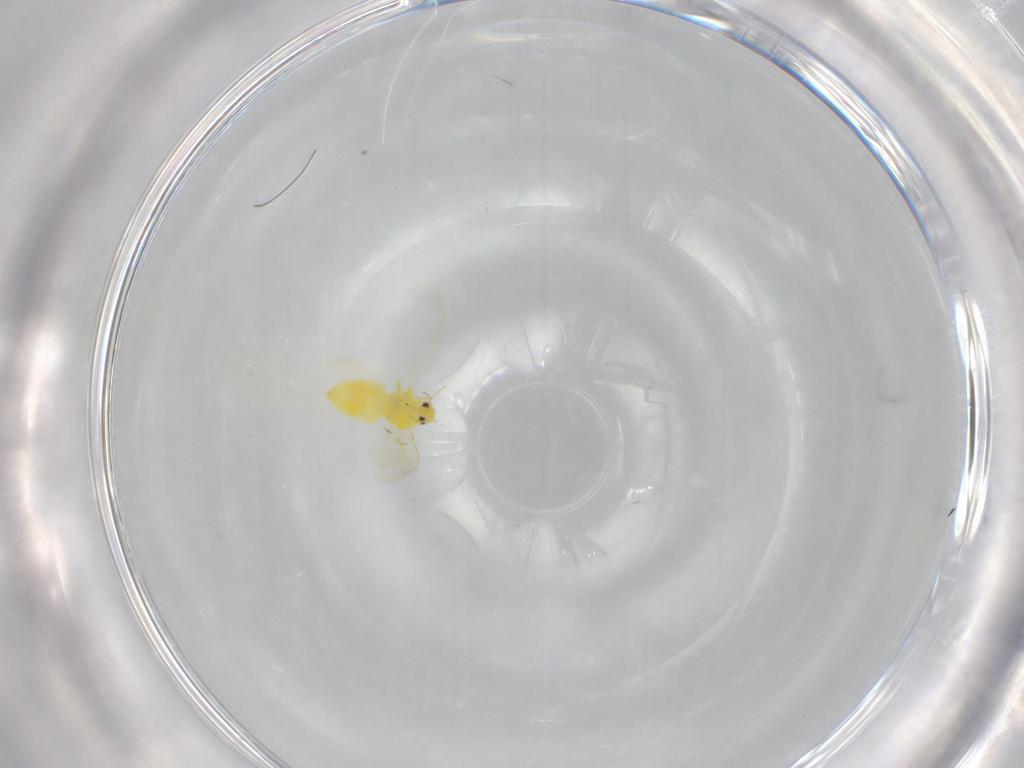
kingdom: Animalia
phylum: Arthropoda
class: Insecta
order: Hemiptera
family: Aleyrodidae
